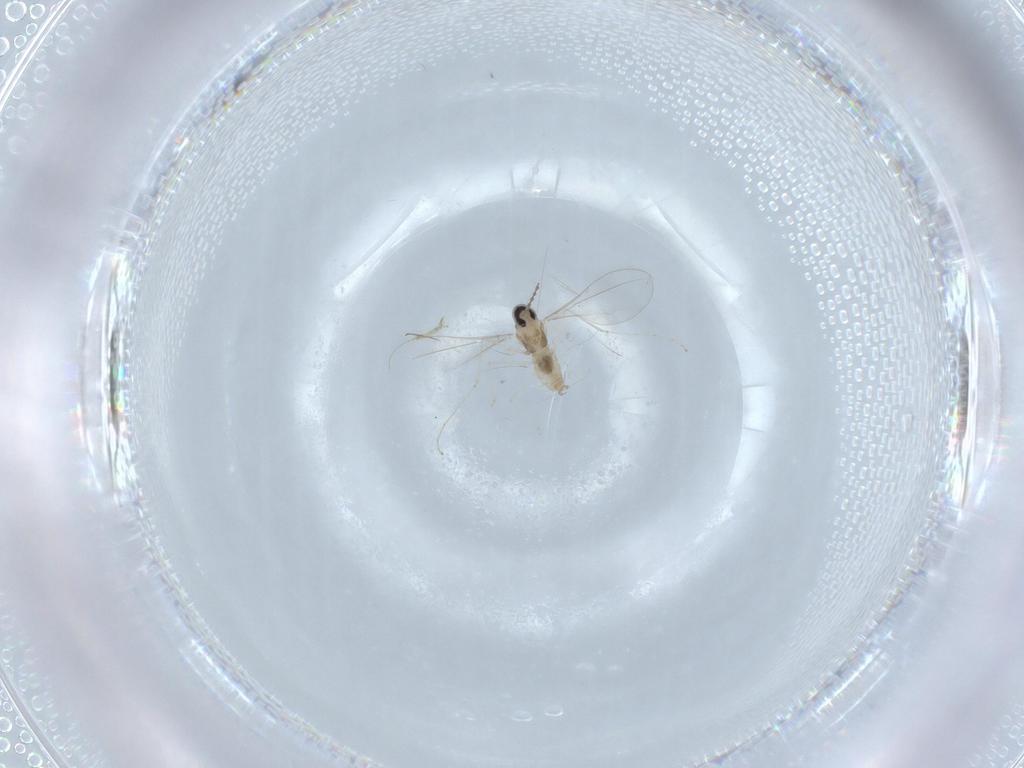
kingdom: Animalia
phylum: Arthropoda
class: Insecta
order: Diptera
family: Cecidomyiidae
